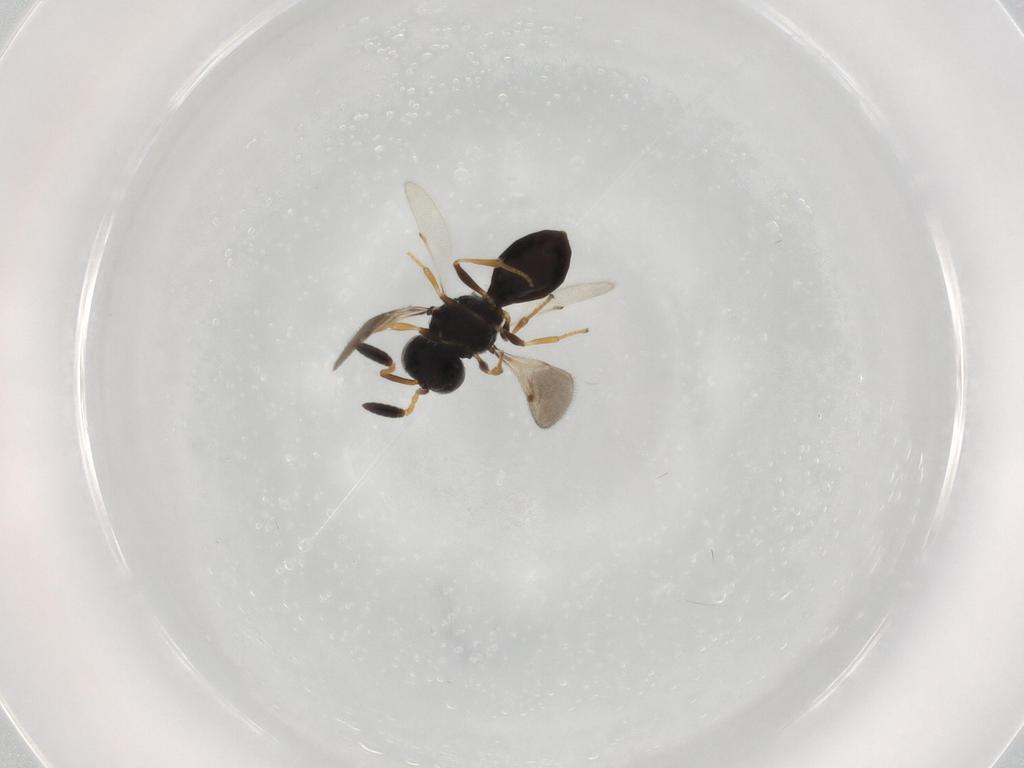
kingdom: Animalia
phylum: Arthropoda
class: Insecta
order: Hymenoptera
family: Scelionidae
